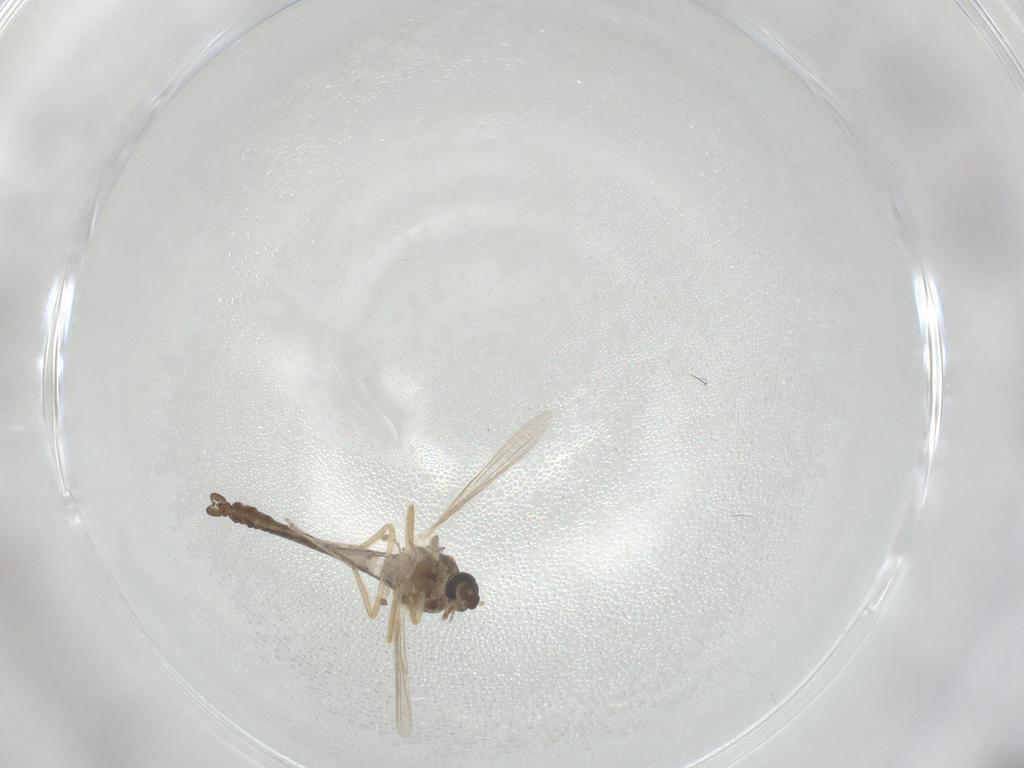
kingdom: Animalia
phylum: Arthropoda
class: Insecta
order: Diptera
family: Ceratopogonidae
